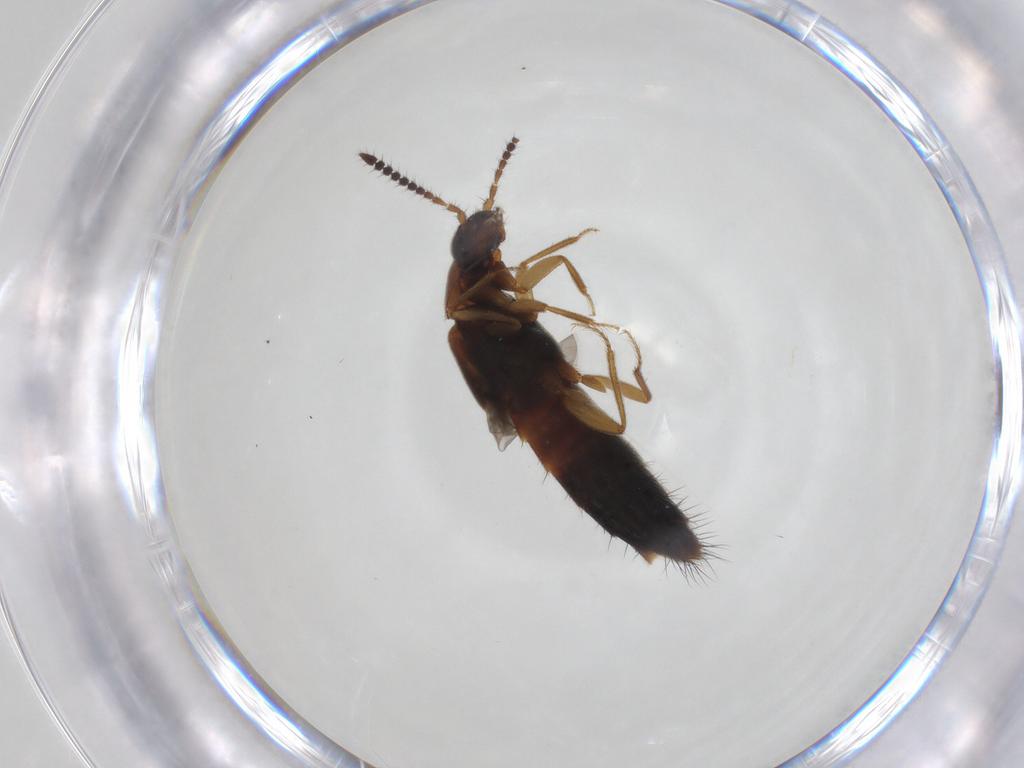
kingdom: Animalia
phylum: Arthropoda
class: Insecta
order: Coleoptera
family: Staphylinidae
